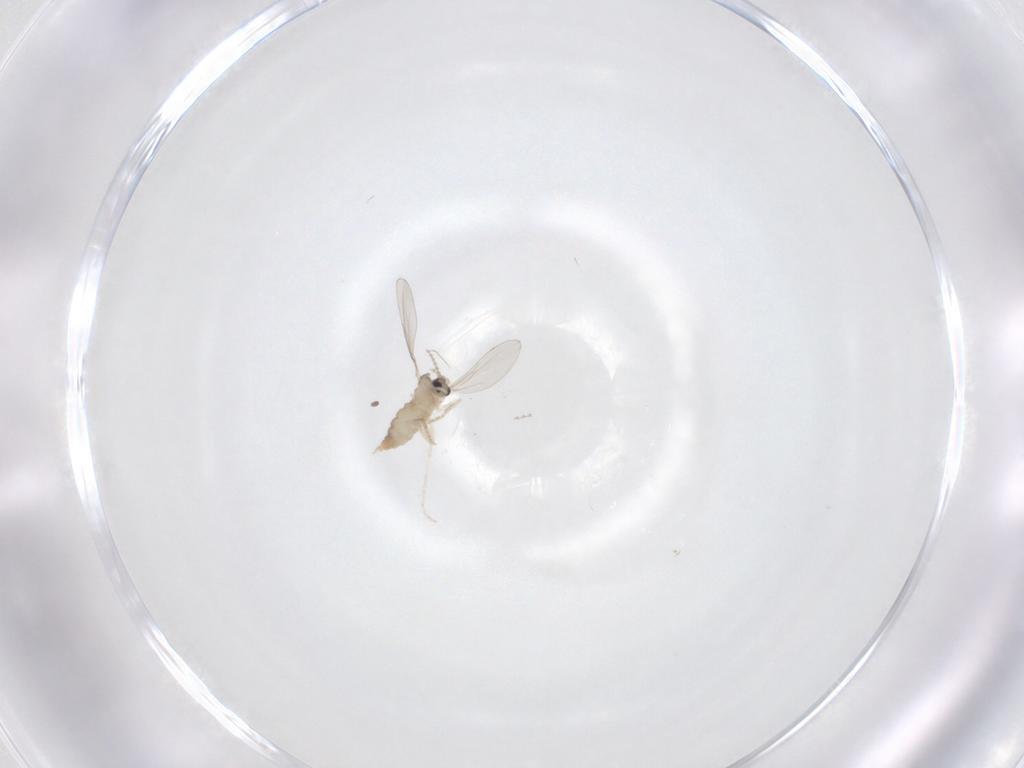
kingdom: Animalia
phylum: Arthropoda
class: Insecta
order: Diptera
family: Cecidomyiidae
